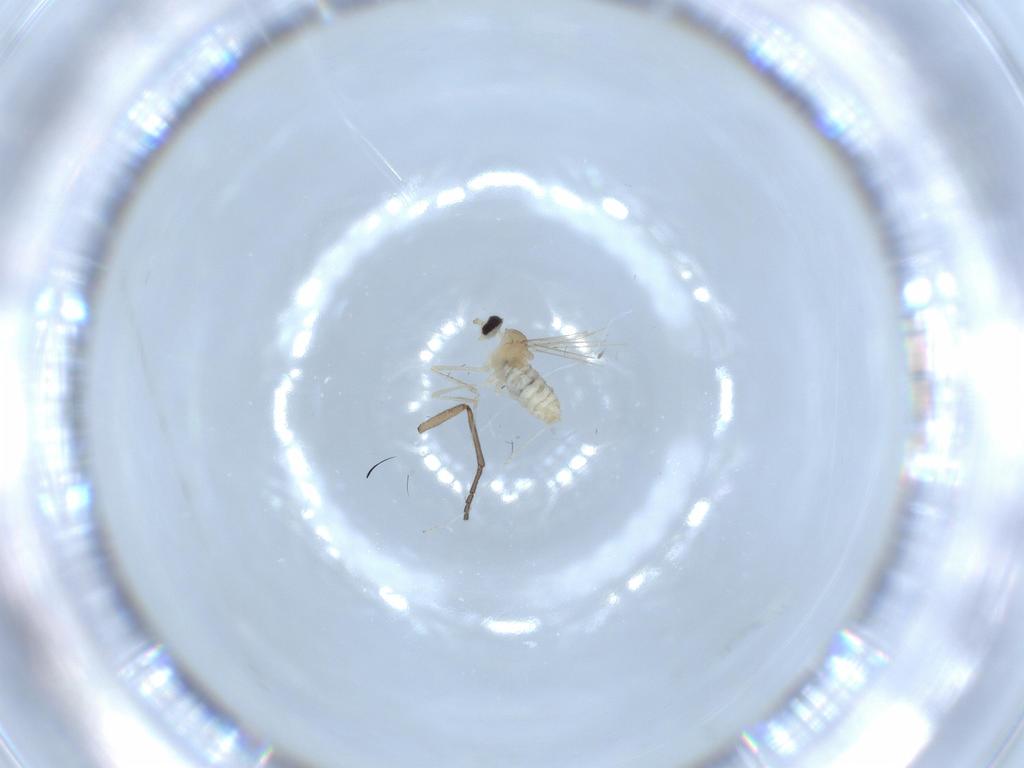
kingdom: Animalia
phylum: Arthropoda
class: Insecta
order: Diptera
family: Cecidomyiidae
